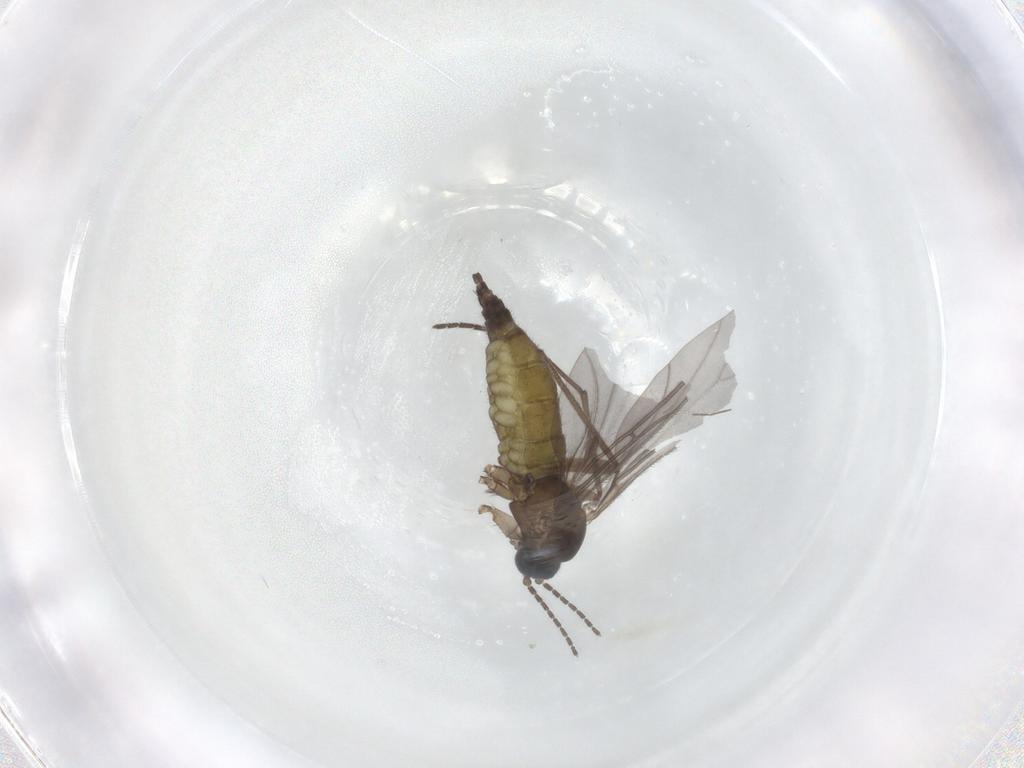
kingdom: Animalia
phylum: Arthropoda
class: Insecta
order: Diptera
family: Sciaridae
